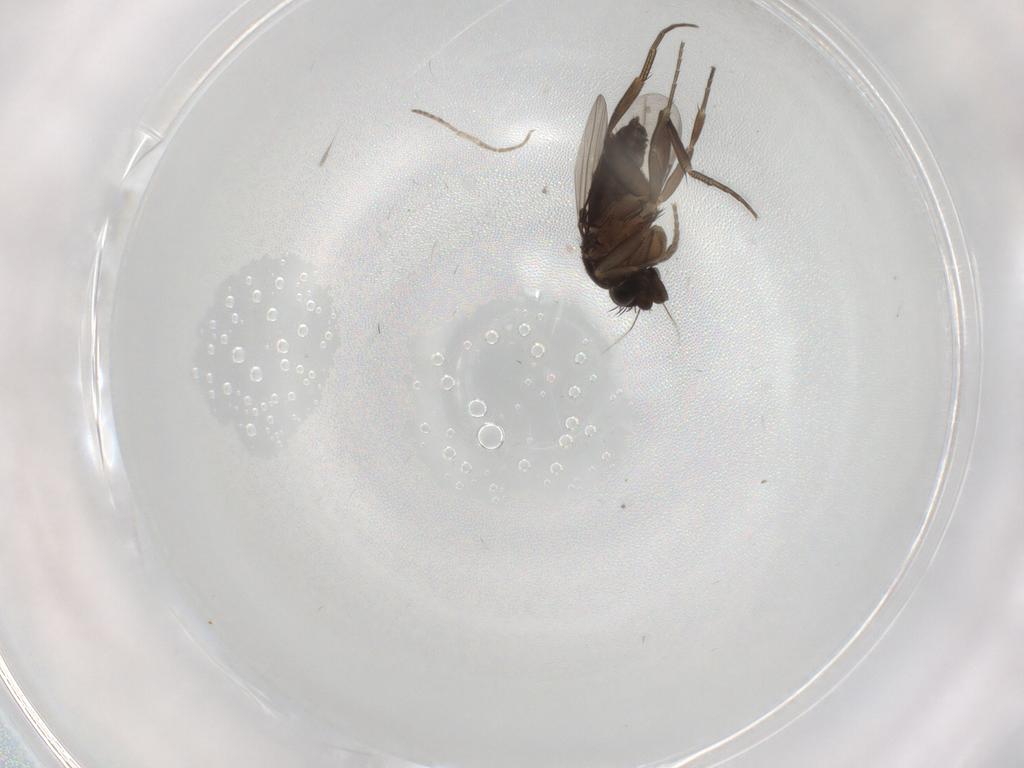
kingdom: Animalia
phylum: Arthropoda
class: Insecta
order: Diptera
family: Phoridae
